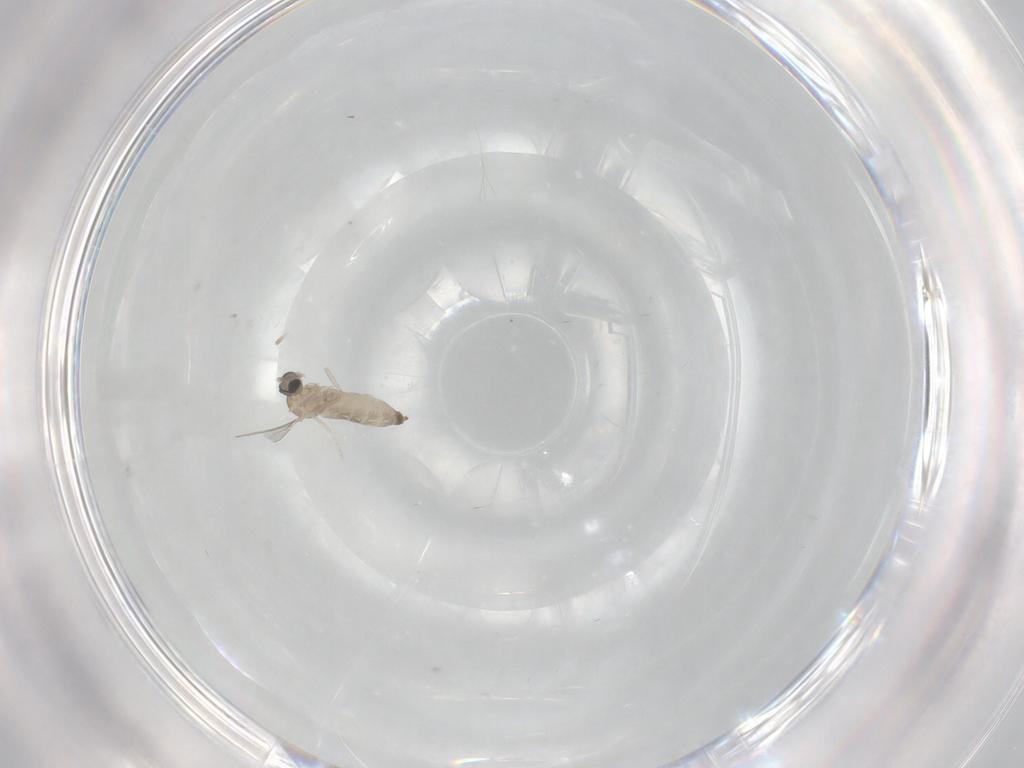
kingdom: Animalia
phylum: Arthropoda
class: Insecta
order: Diptera
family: Cecidomyiidae
